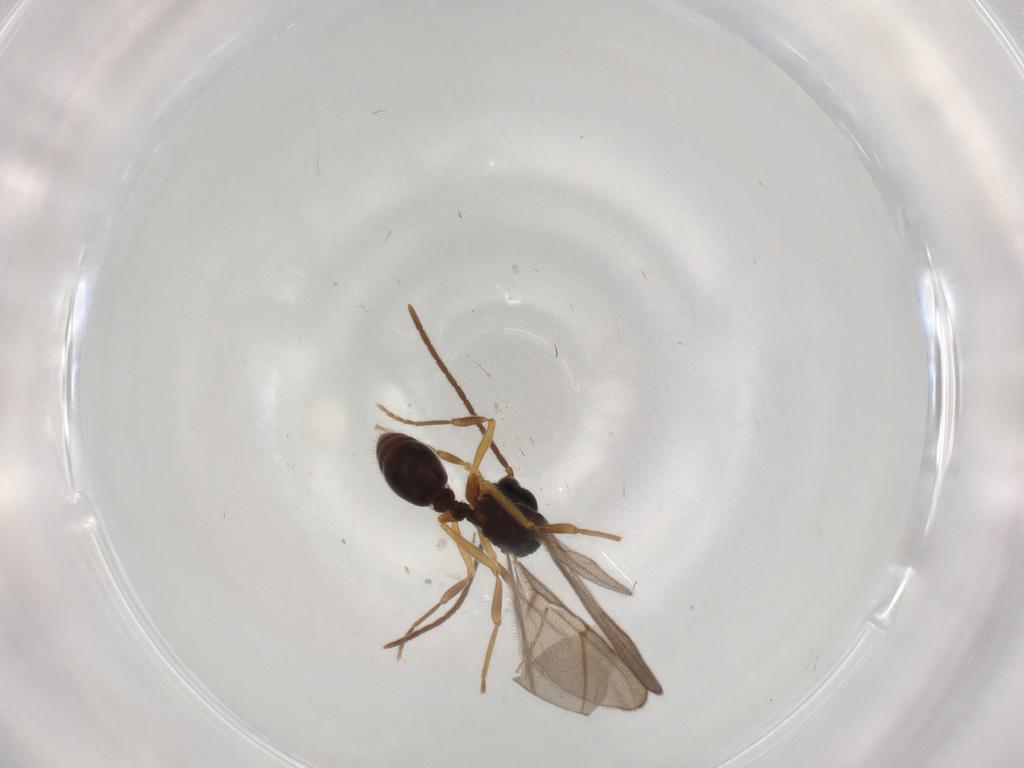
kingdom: Animalia
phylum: Arthropoda
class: Insecta
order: Hymenoptera
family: Formicidae
